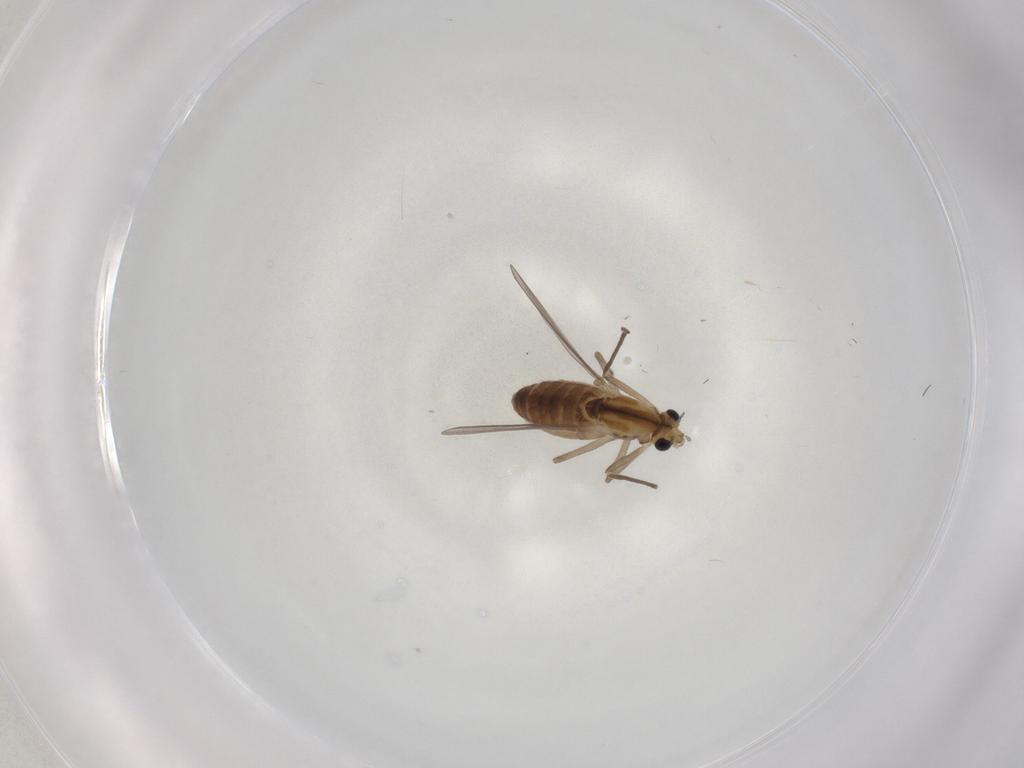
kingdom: Animalia
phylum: Arthropoda
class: Insecta
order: Diptera
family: Chironomidae
